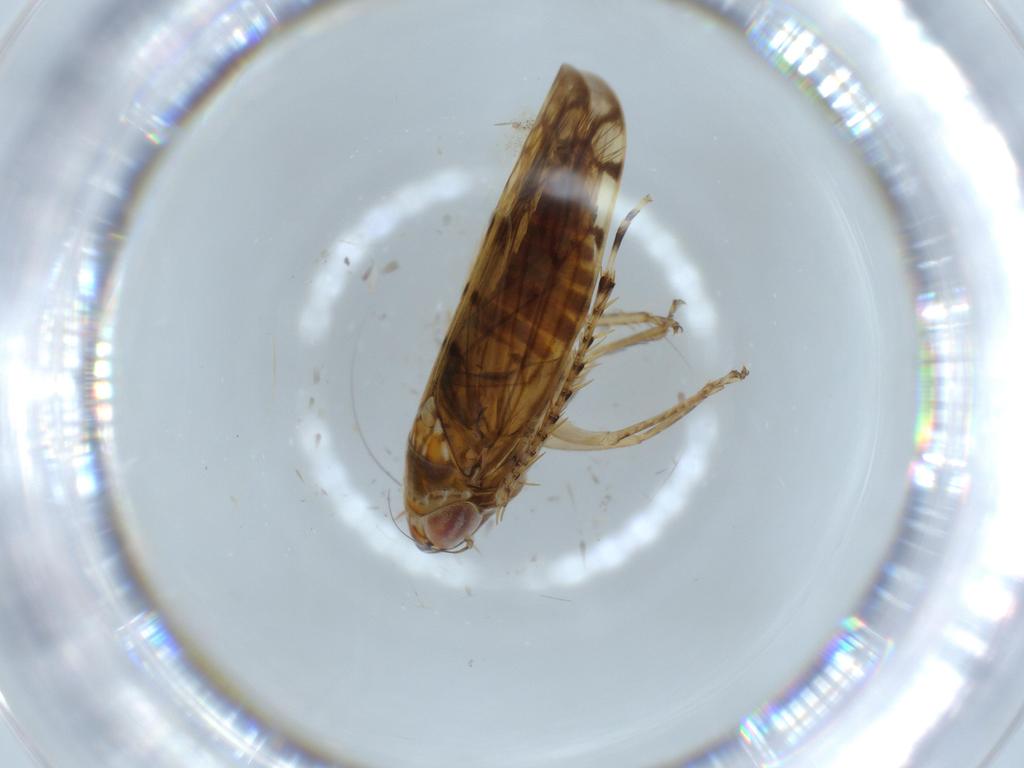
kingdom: Animalia
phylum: Arthropoda
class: Insecta
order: Hemiptera
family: Cicadellidae
